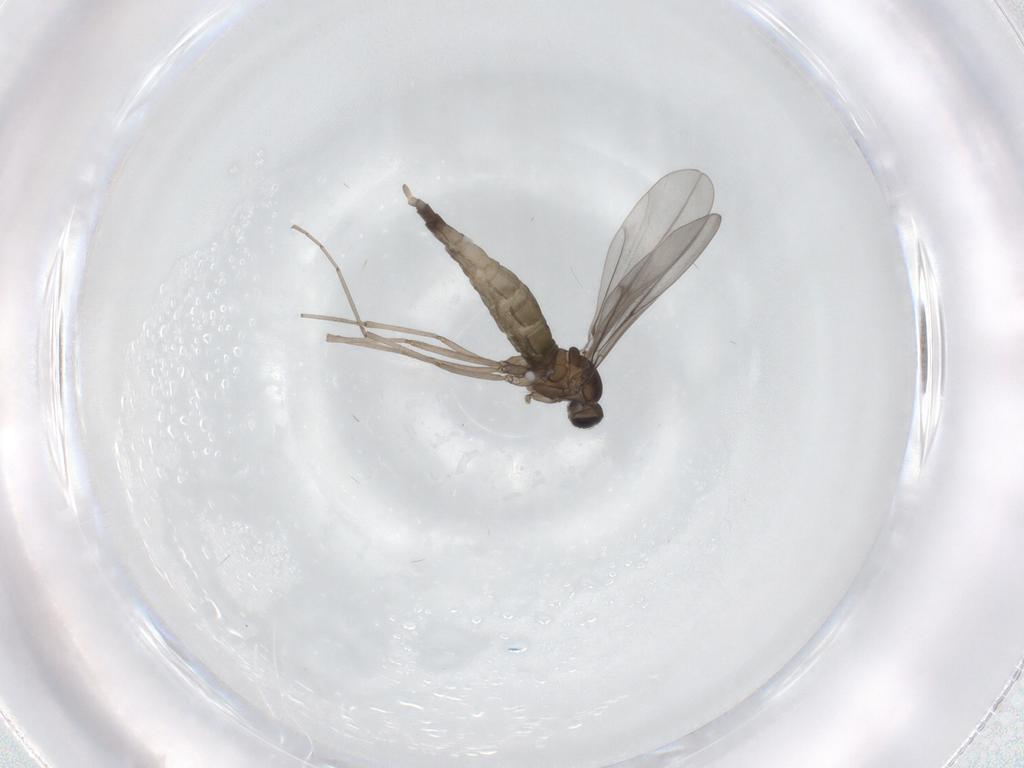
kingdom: Animalia
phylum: Arthropoda
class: Insecta
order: Diptera
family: Cecidomyiidae
